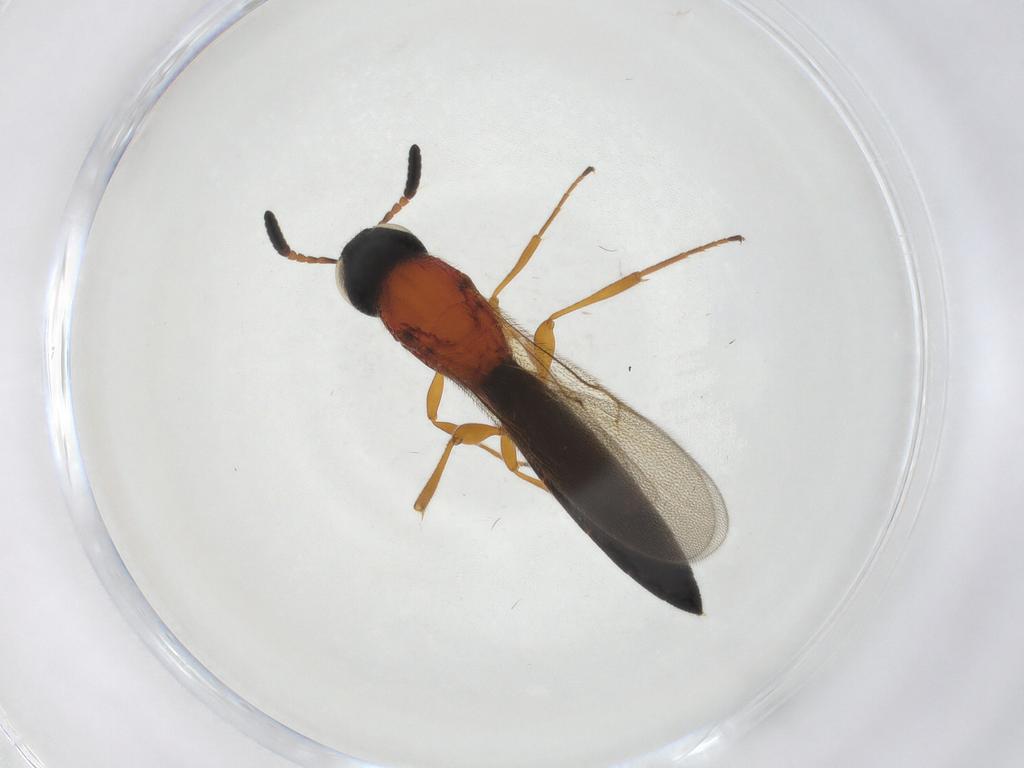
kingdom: Animalia
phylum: Arthropoda
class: Insecta
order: Hymenoptera
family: Scelionidae
